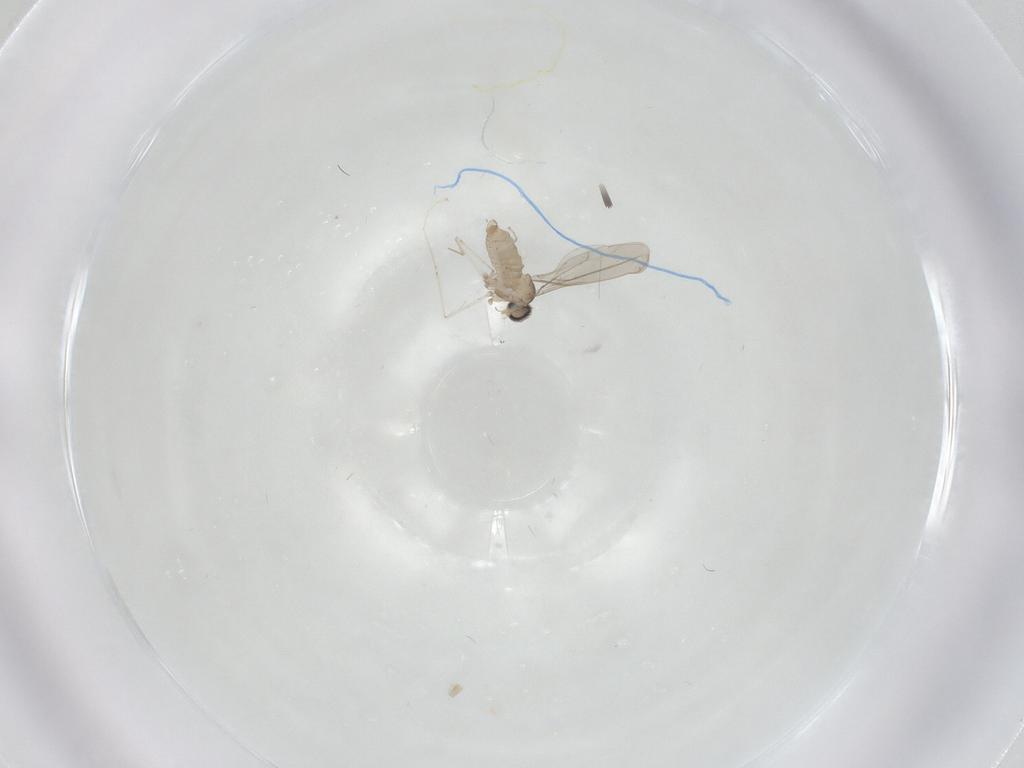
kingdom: Animalia
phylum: Arthropoda
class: Insecta
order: Diptera
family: Cecidomyiidae
